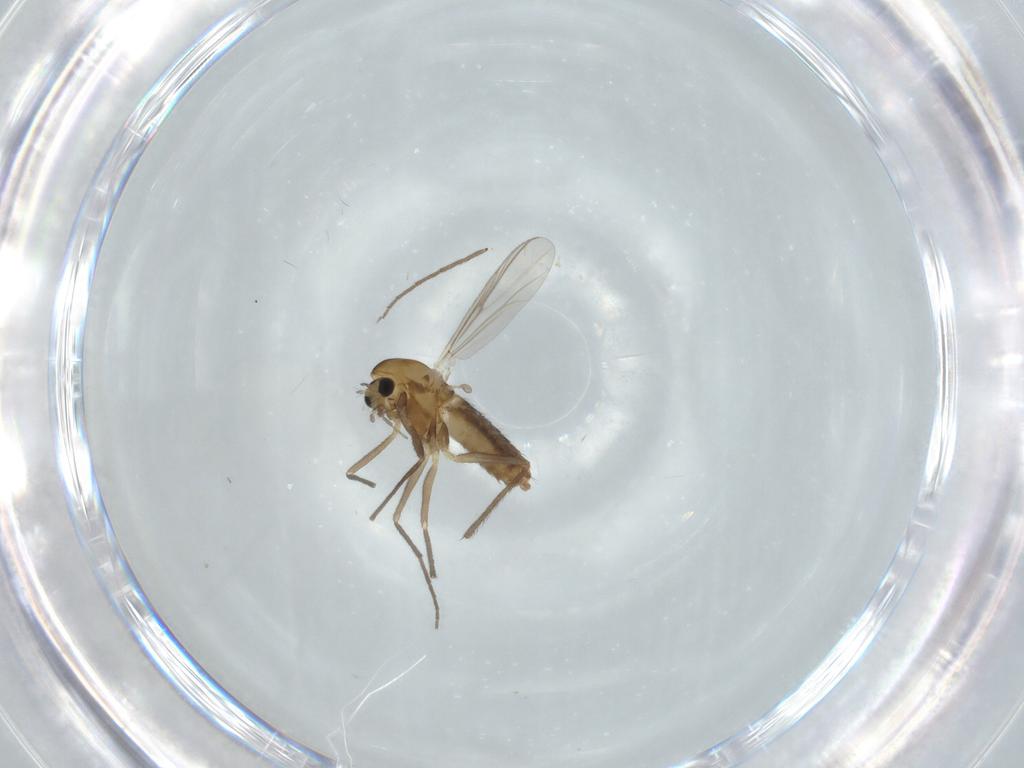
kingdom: Animalia
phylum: Arthropoda
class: Insecta
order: Diptera
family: Chironomidae
